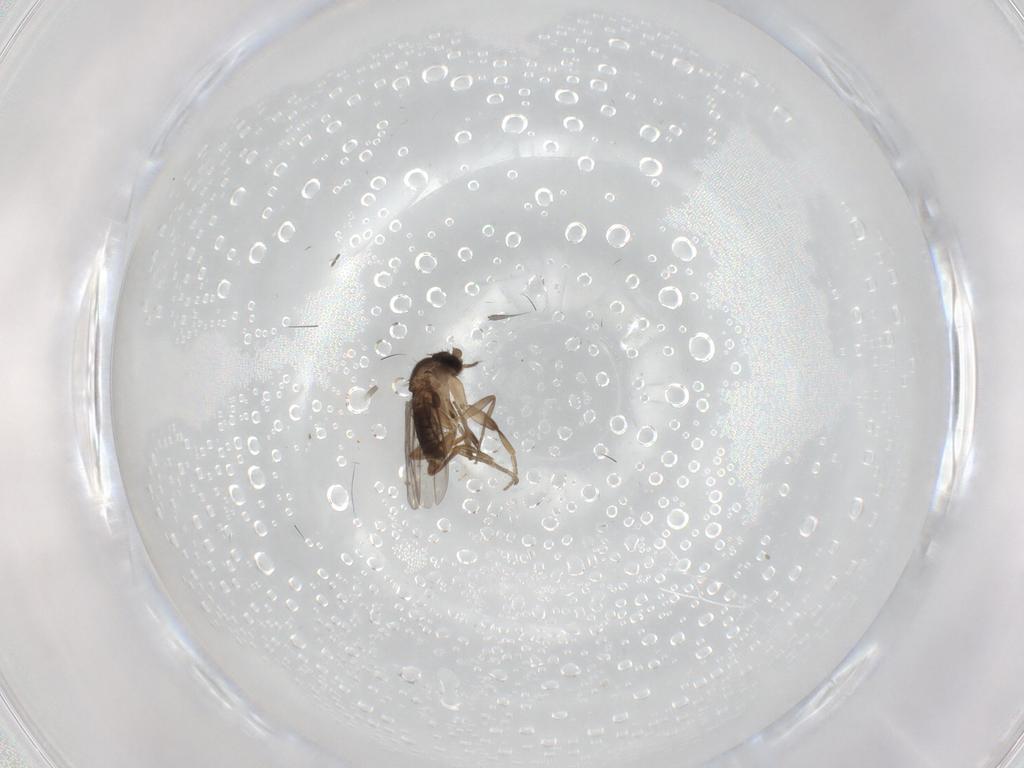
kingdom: Animalia
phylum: Arthropoda
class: Insecta
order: Diptera
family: Phoridae
